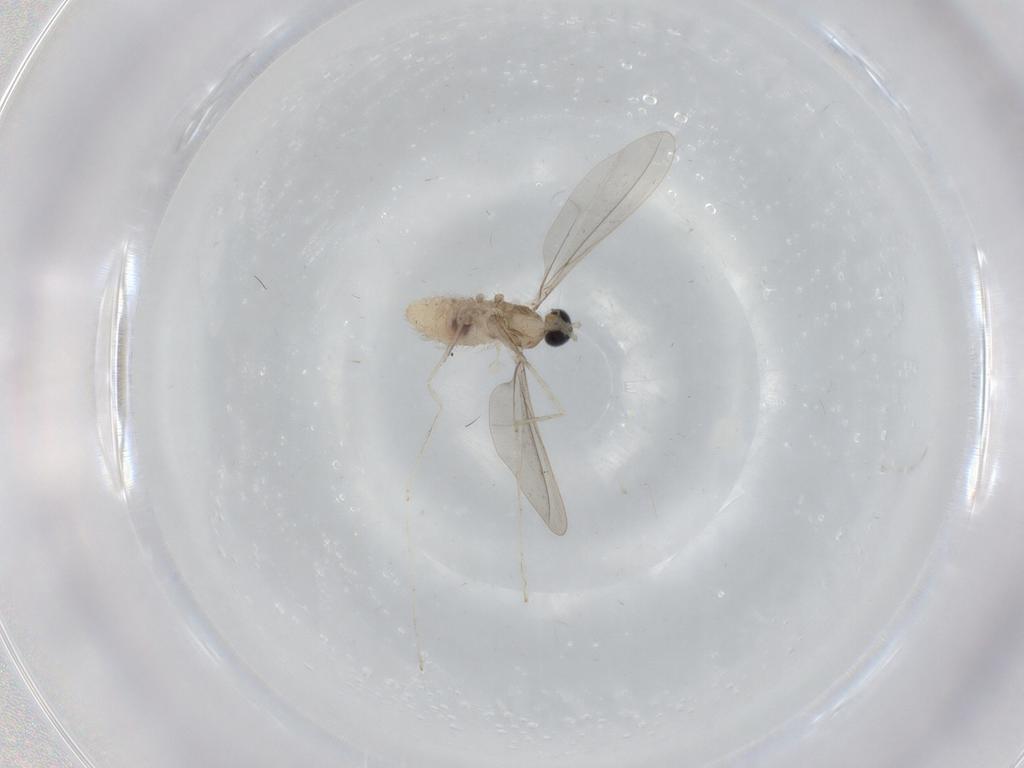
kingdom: Animalia
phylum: Arthropoda
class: Insecta
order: Diptera
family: Cecidomyiidae
